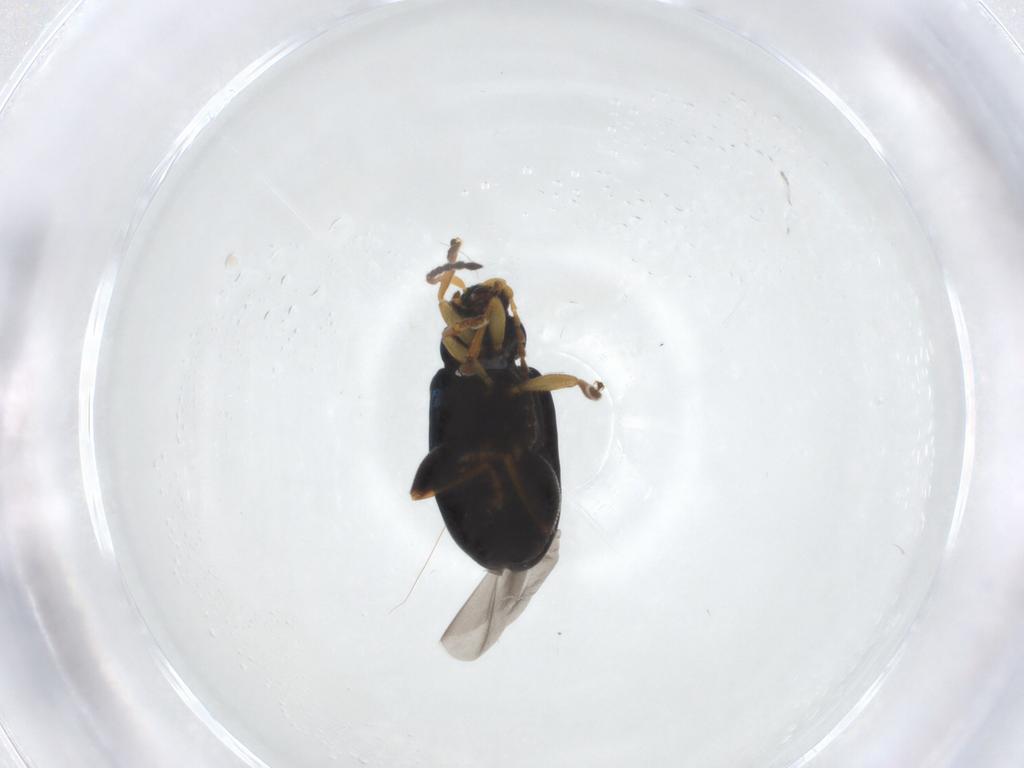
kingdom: Animalia
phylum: Arthropoda
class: Insecta
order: Coleoptera
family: Chrysomelidae
